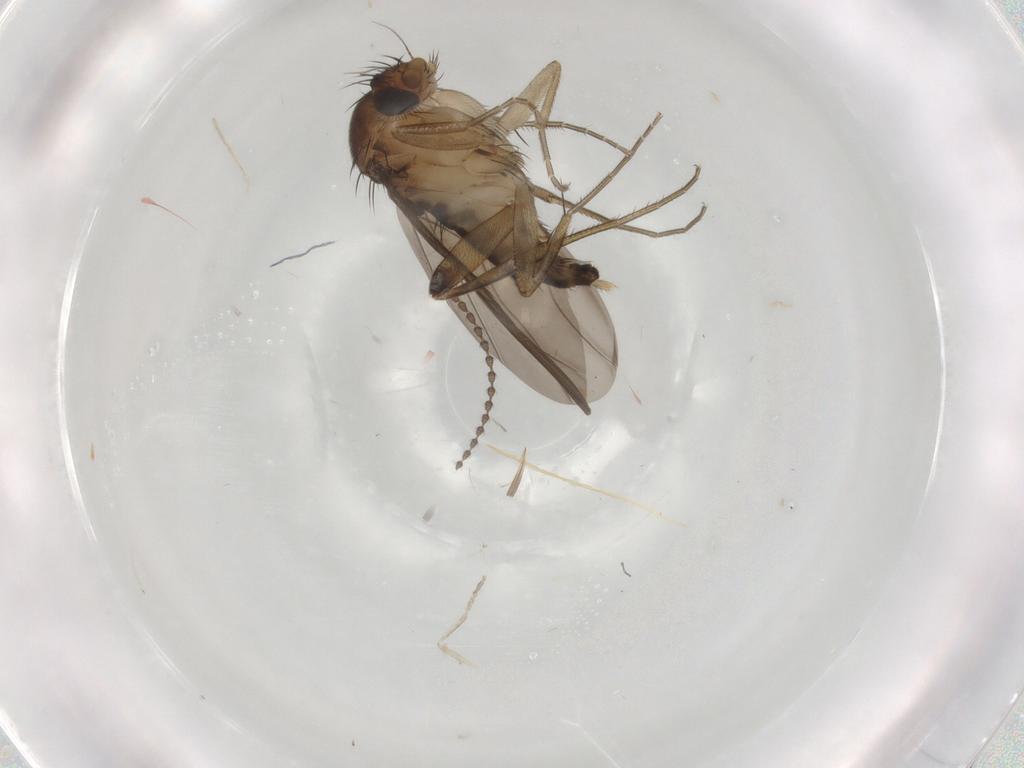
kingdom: Animalia
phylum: Arthropoda
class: Insecta
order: Diptera
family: Phoridae
